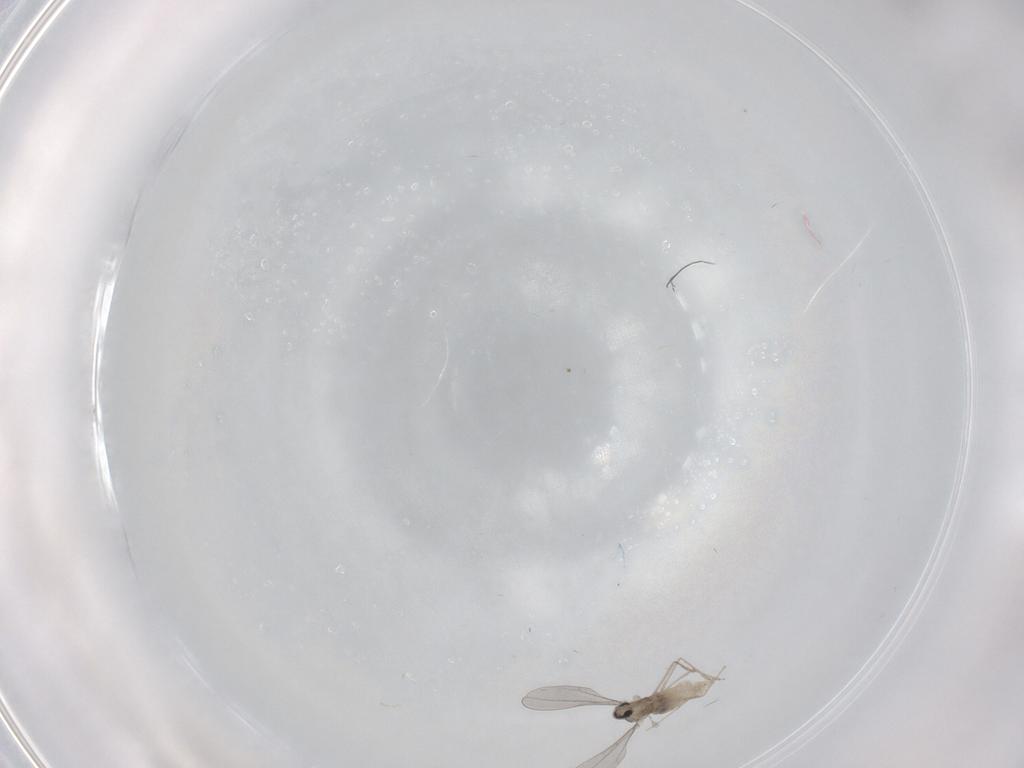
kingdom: Animalia
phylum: Arthropoda
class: Insecta
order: Diptera
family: Cecidomyiidae
